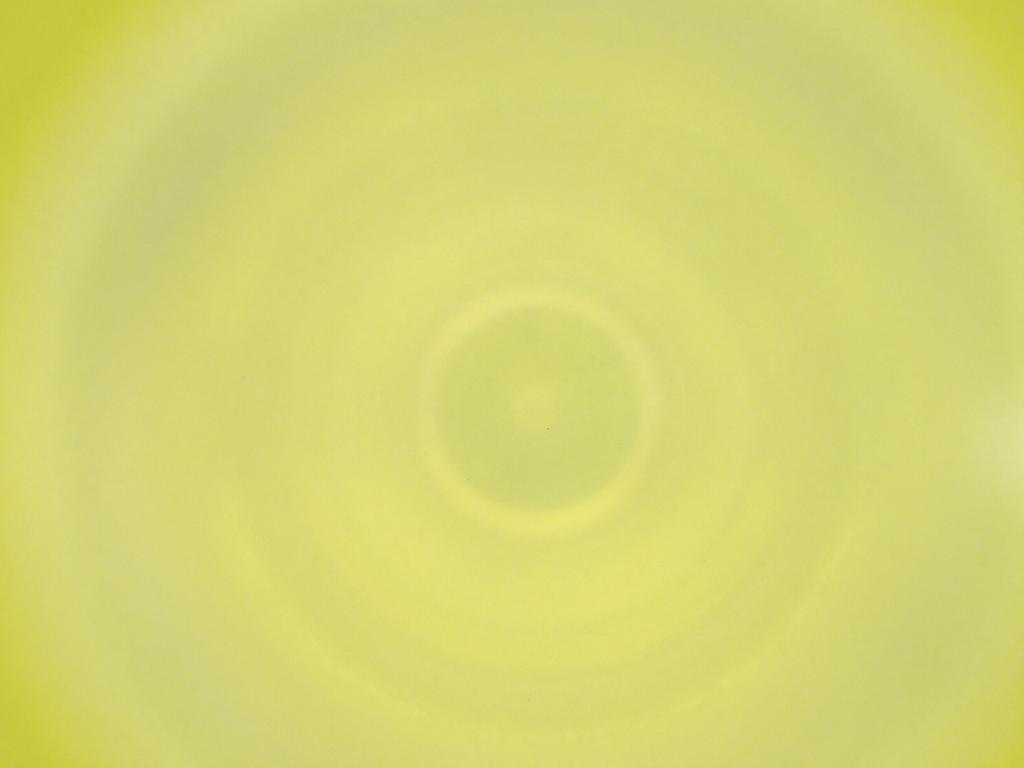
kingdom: Animalia
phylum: Arthropoda
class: Insecta
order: Diptera
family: Cecidomyiidae
